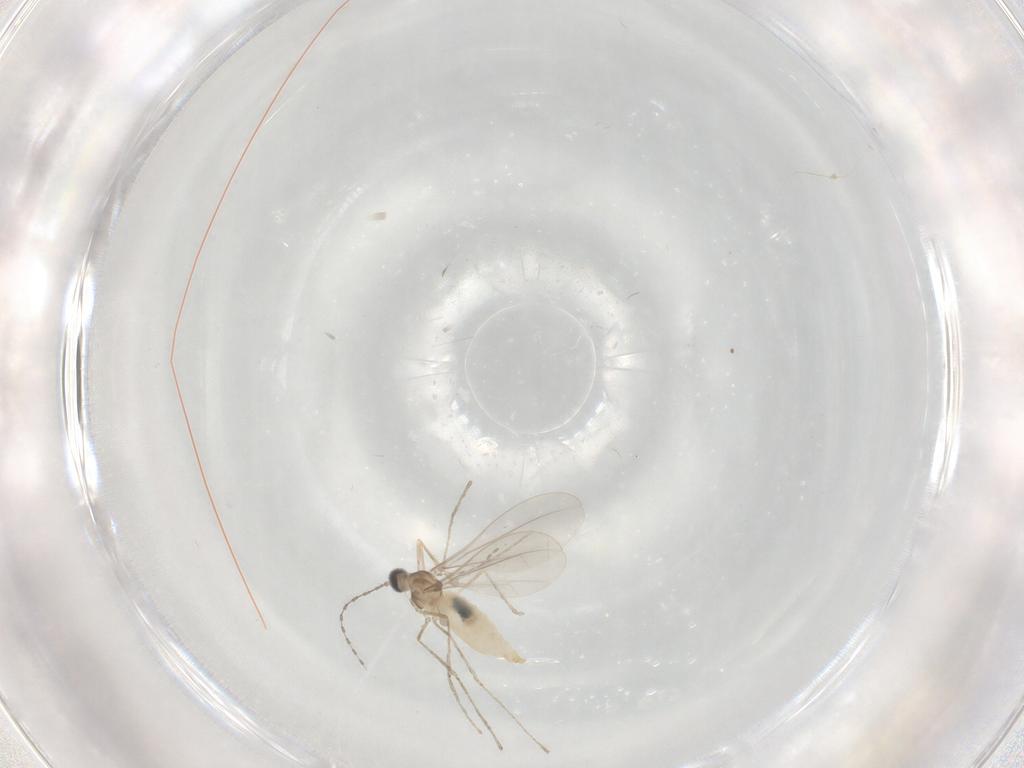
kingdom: Animalia
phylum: Arthropoda
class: Insecta
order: Diptera
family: Cecidomyiidae
